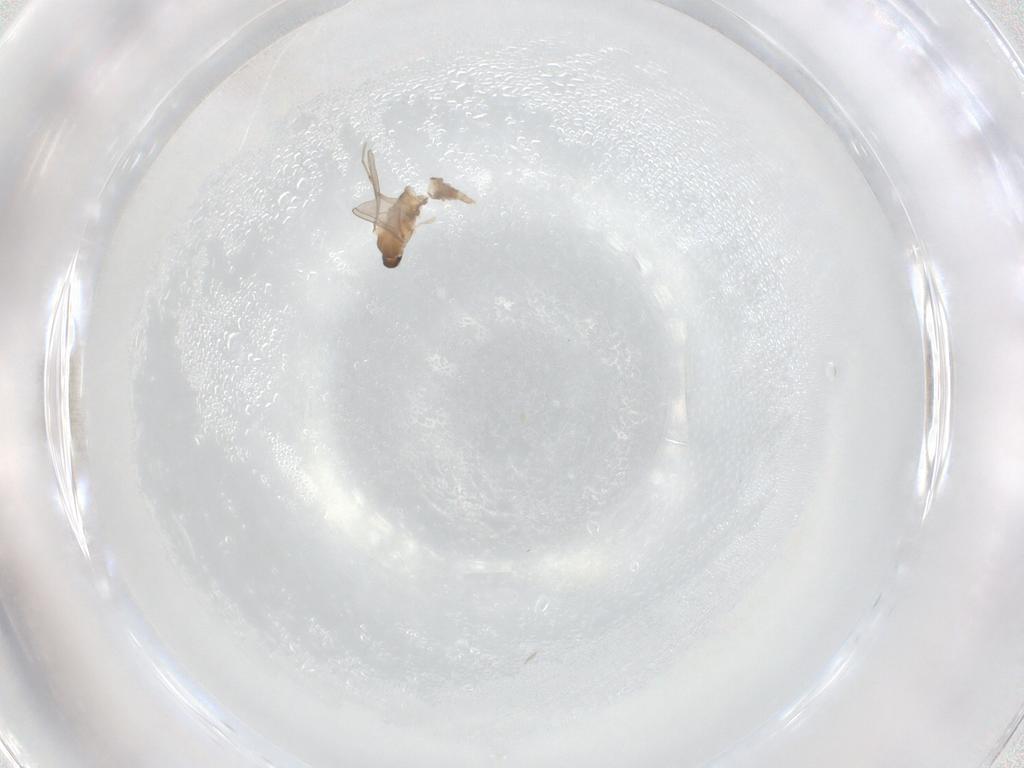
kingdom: Animalia
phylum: Arthropoda
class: Insecta
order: Diptera
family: Cecidomyiidae
